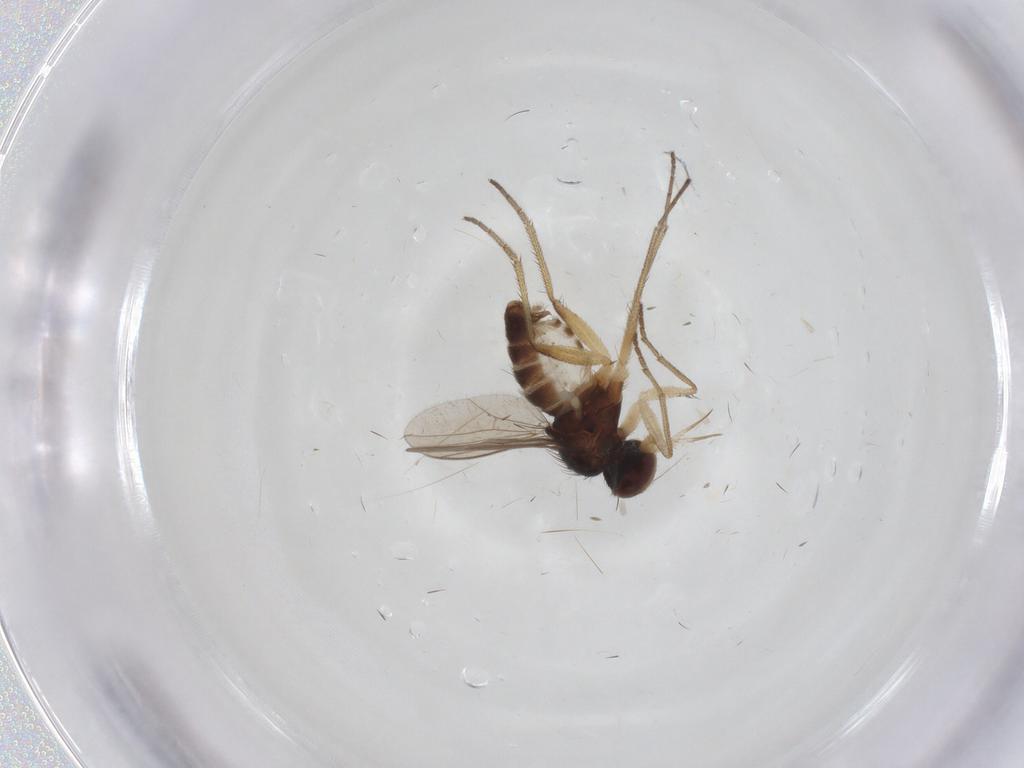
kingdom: Animalia
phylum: Arthropoda
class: Insecta
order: Diptera
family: Dolichopodidae
